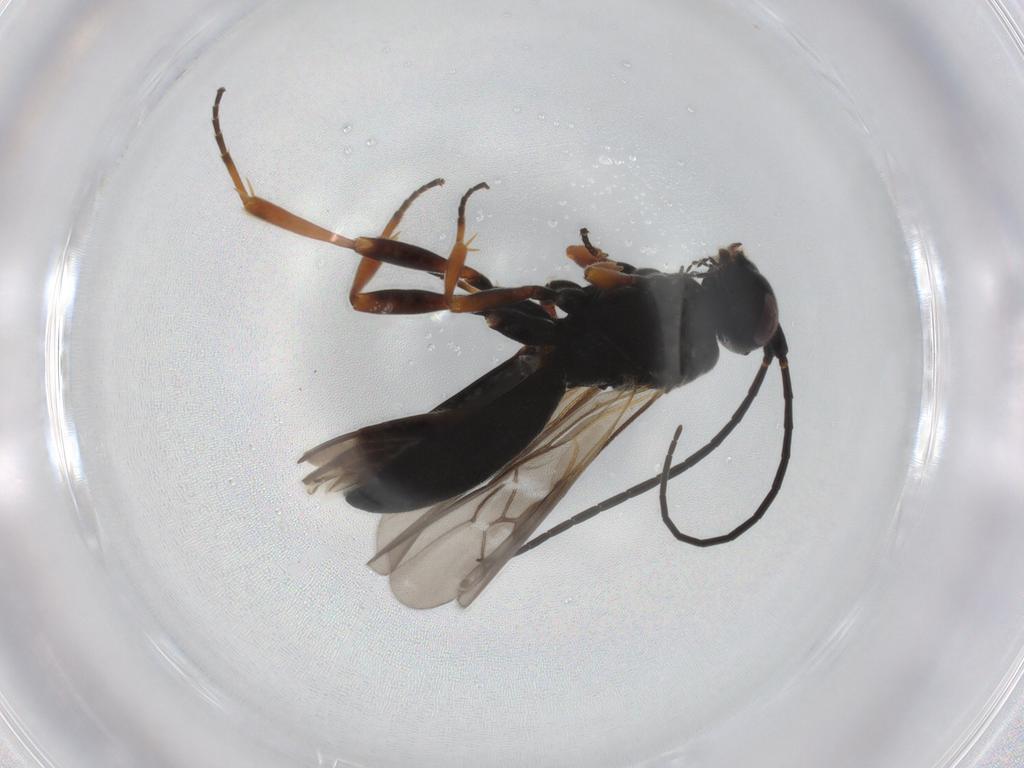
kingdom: Animalia
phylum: Arthropoda
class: Insecta
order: Hymenoptera
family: Braconidae
